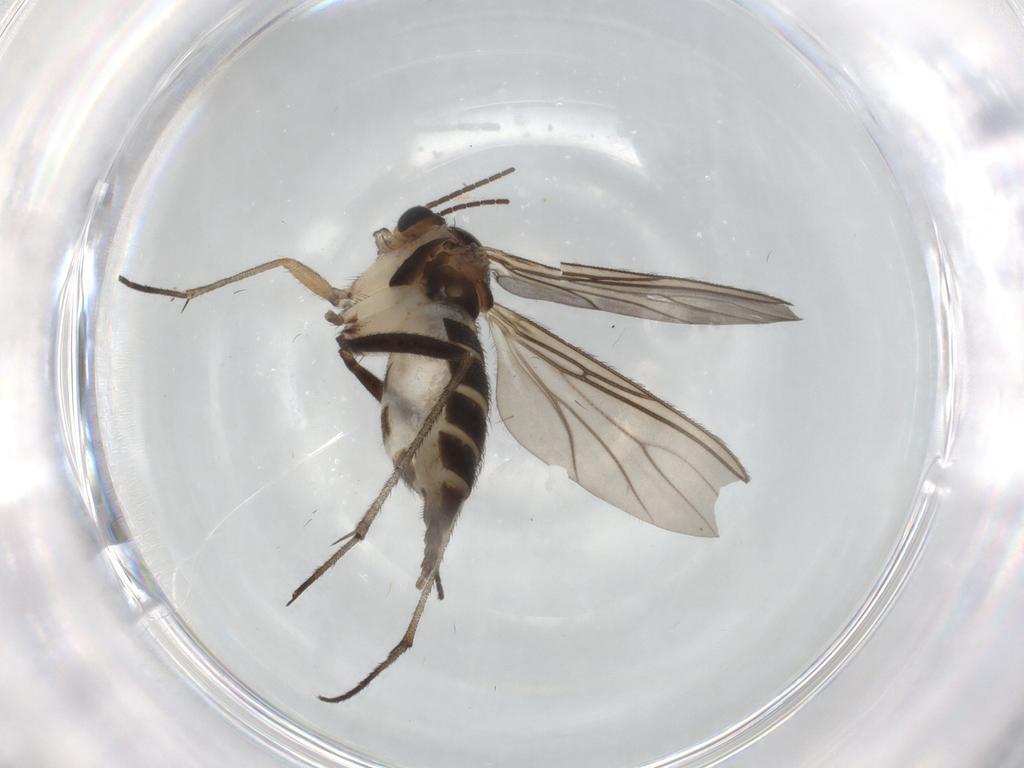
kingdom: Animalia
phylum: Arthropoda
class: Insecta
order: Diptera
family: Sciaridae
